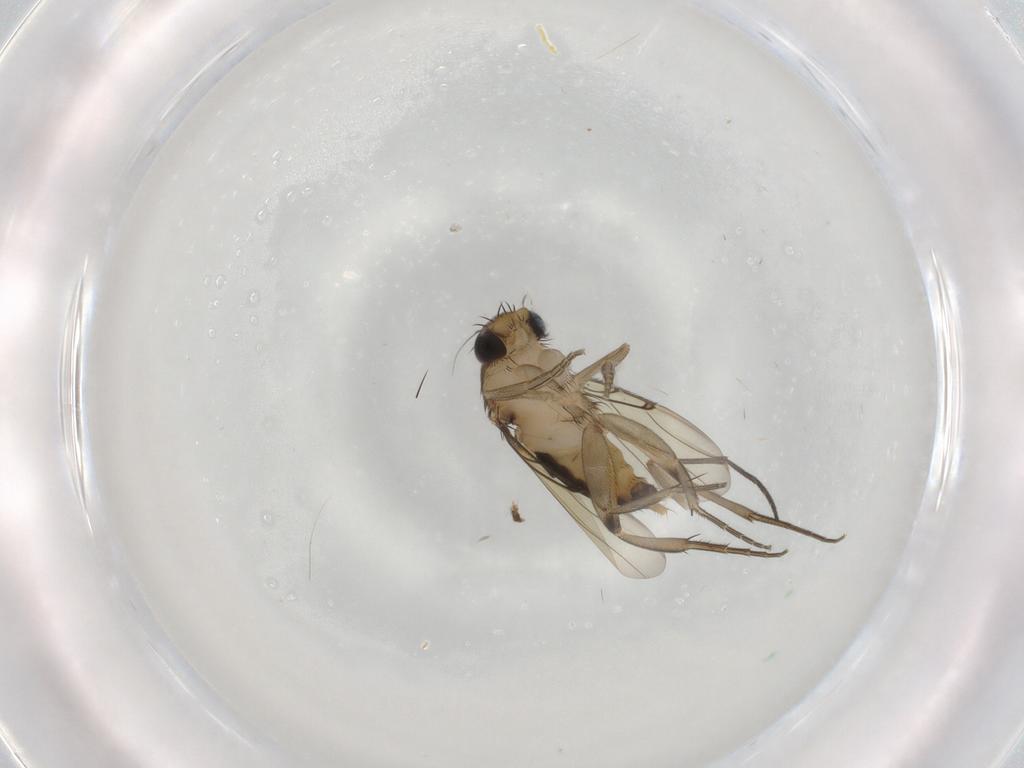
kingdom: Animalia
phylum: Arthropoda
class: Insecta
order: Diptera
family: Sciaridae
